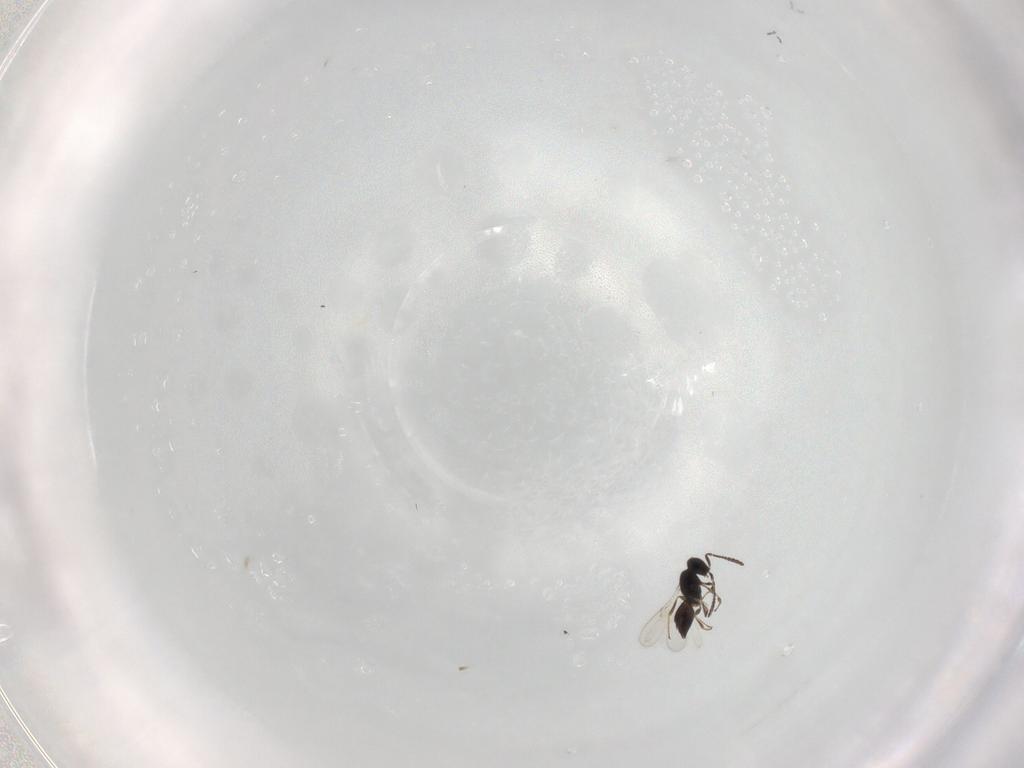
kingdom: Animalia
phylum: Arthropoda
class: Insecta
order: Hymenoptera
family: Scelionidae
